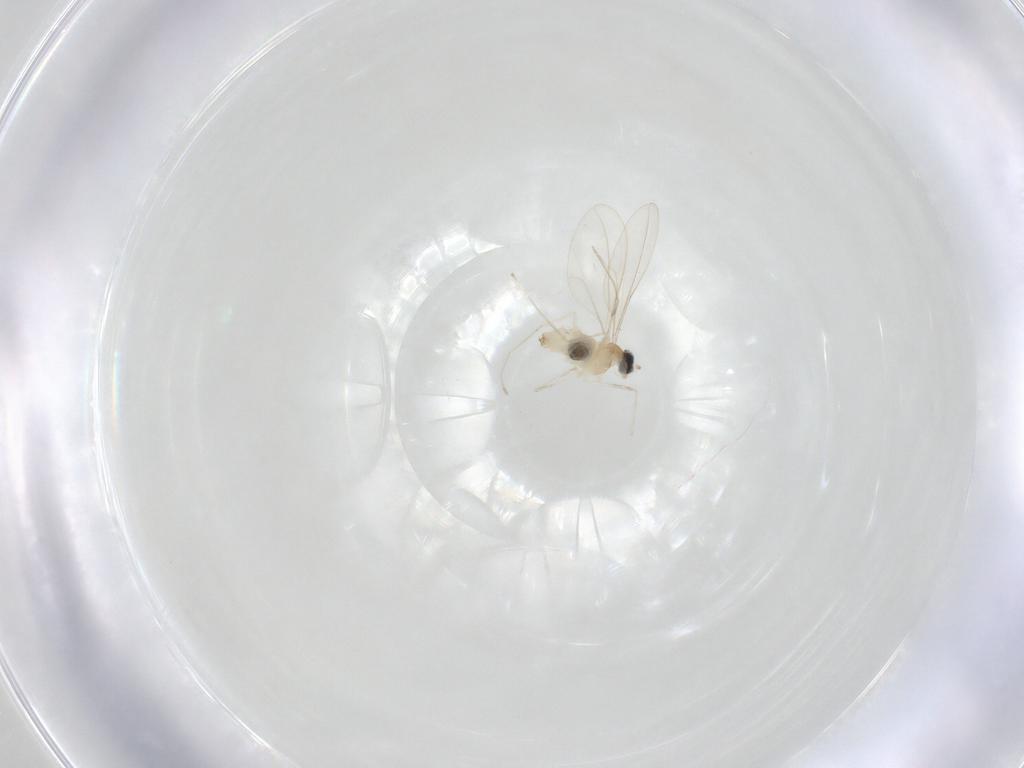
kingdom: Animalia
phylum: Arthropoda
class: Insecta
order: Diptera
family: Cecidomyiidae
